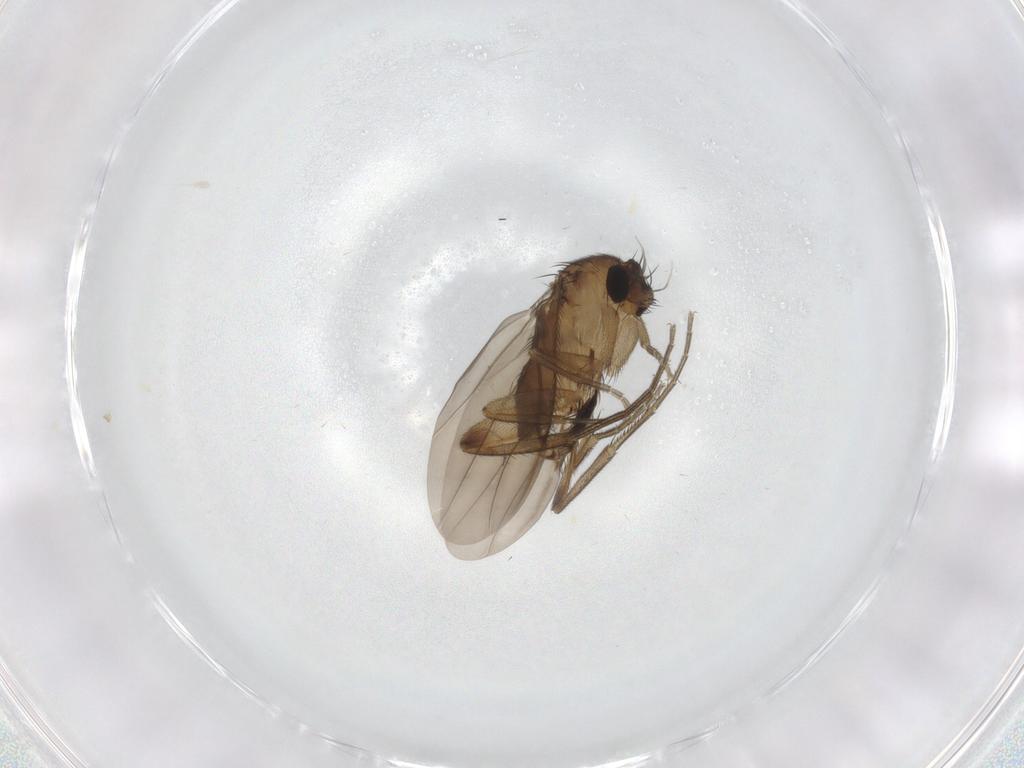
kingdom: Animalia
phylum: Arthropoda
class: Insecta
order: Diptera
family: Phoridae
